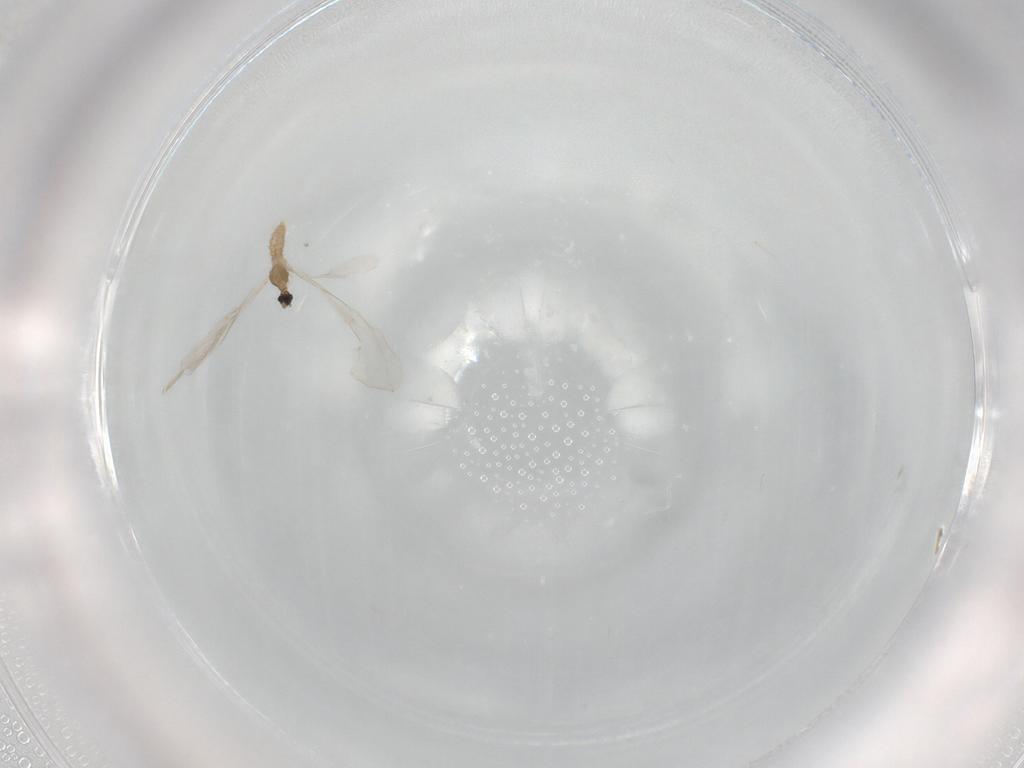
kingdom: Animalia
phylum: Arthropoda
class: Insecta
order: Diptera
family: Cecidomyiidae
